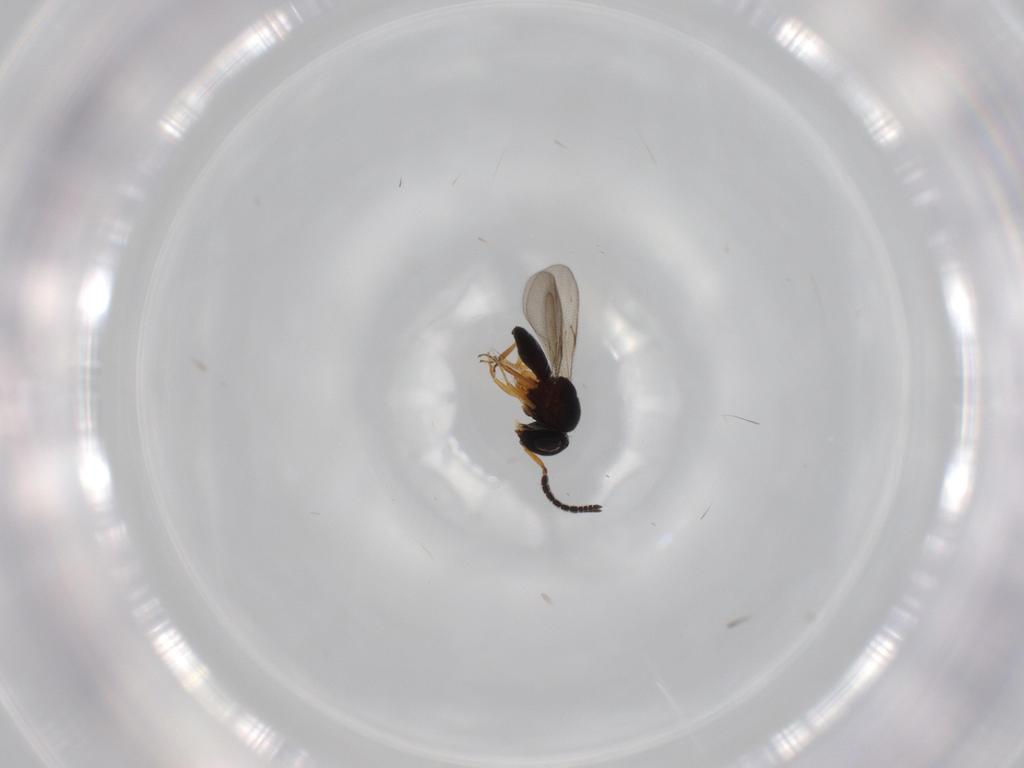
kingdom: Animalia
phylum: Arthropoda
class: Insecta
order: Hymenoptera
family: Scelionidae
